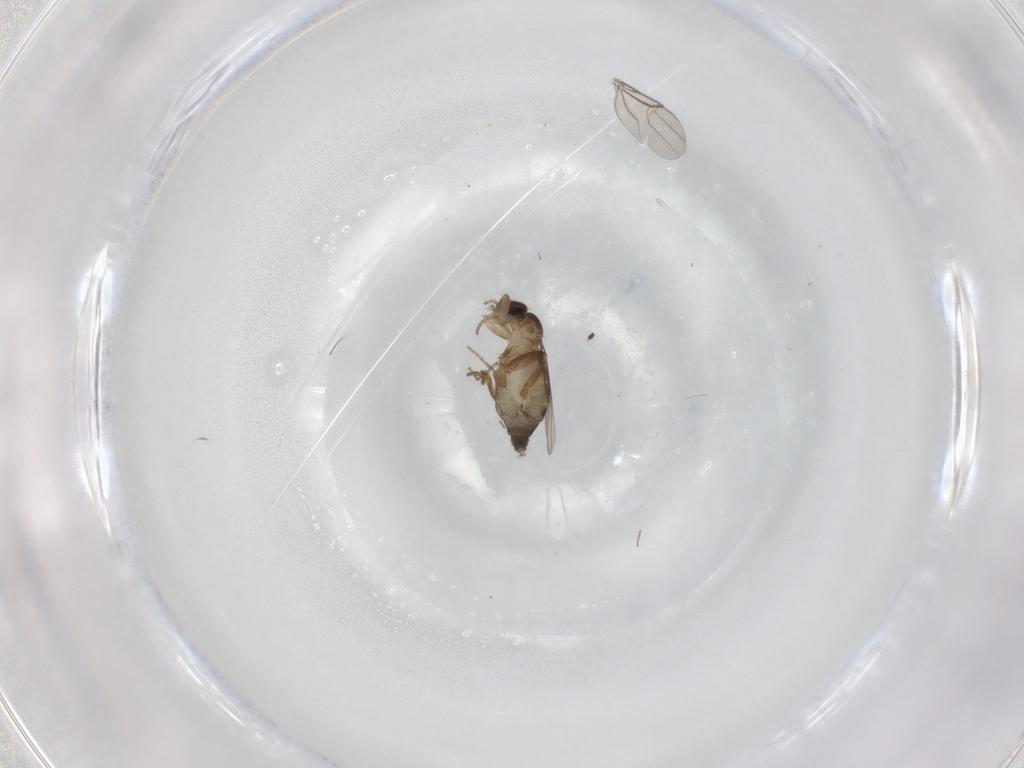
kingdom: Animalia
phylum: Arthropoda
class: Insecta
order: Diptera
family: Phoridae
